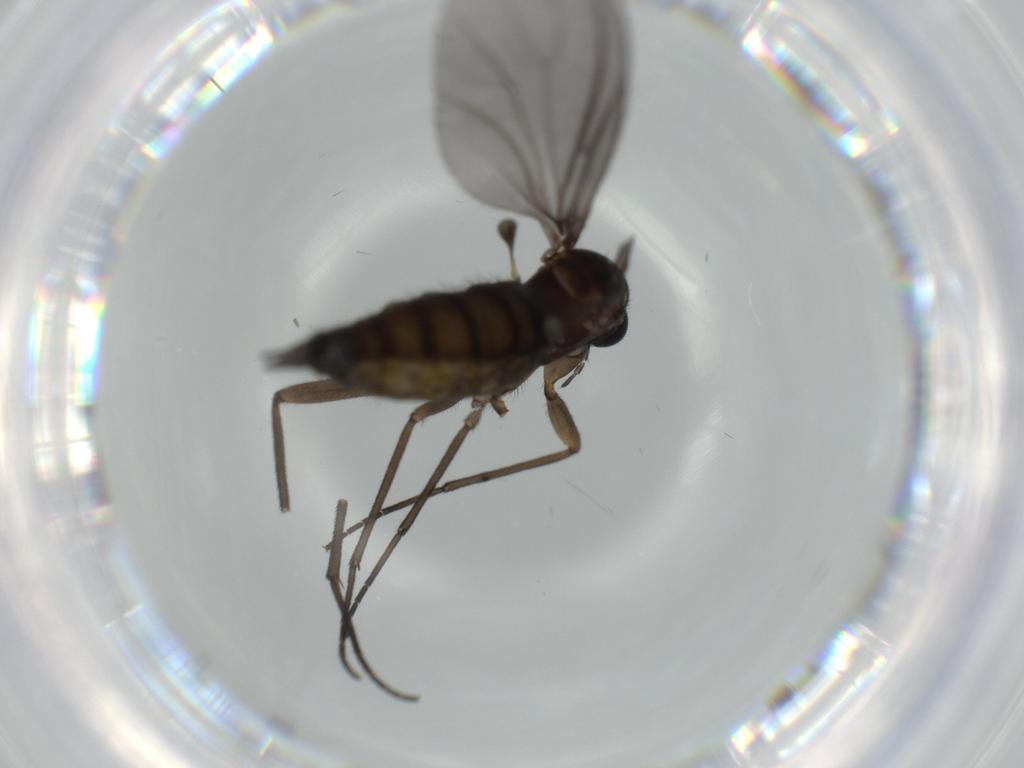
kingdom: Animalia
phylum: Arthropoda
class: Insecta
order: Diptera
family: Sciaridae
